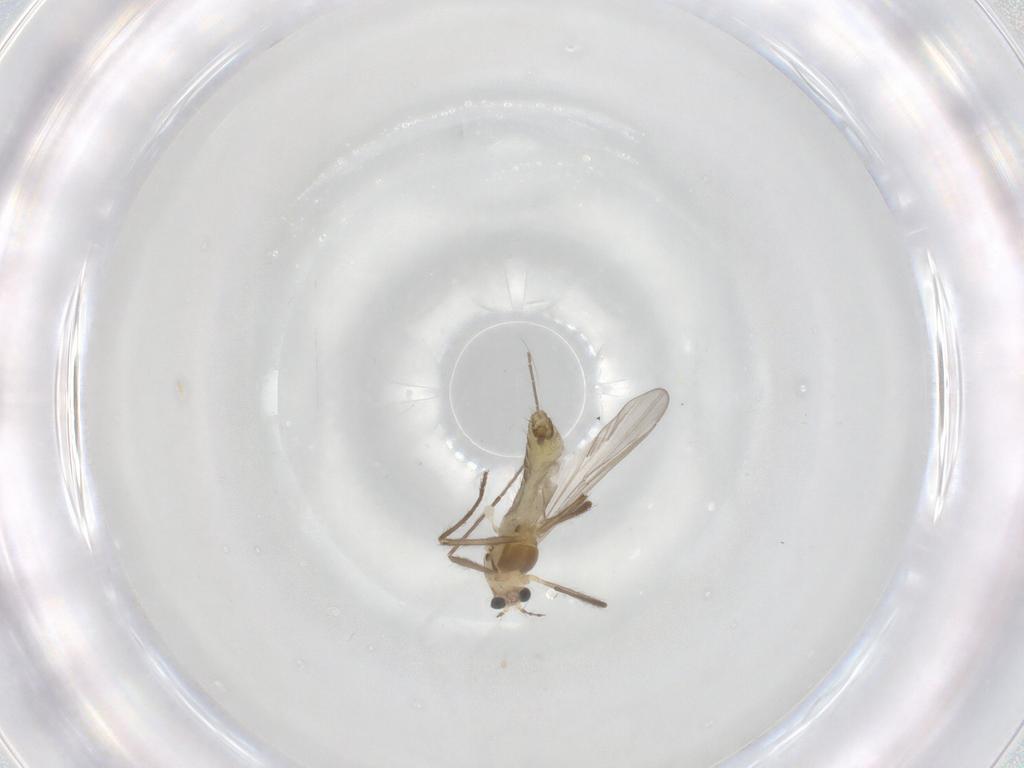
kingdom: Animalia
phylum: Arthropoda
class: Insecta
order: Diptera
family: Chironomidae
